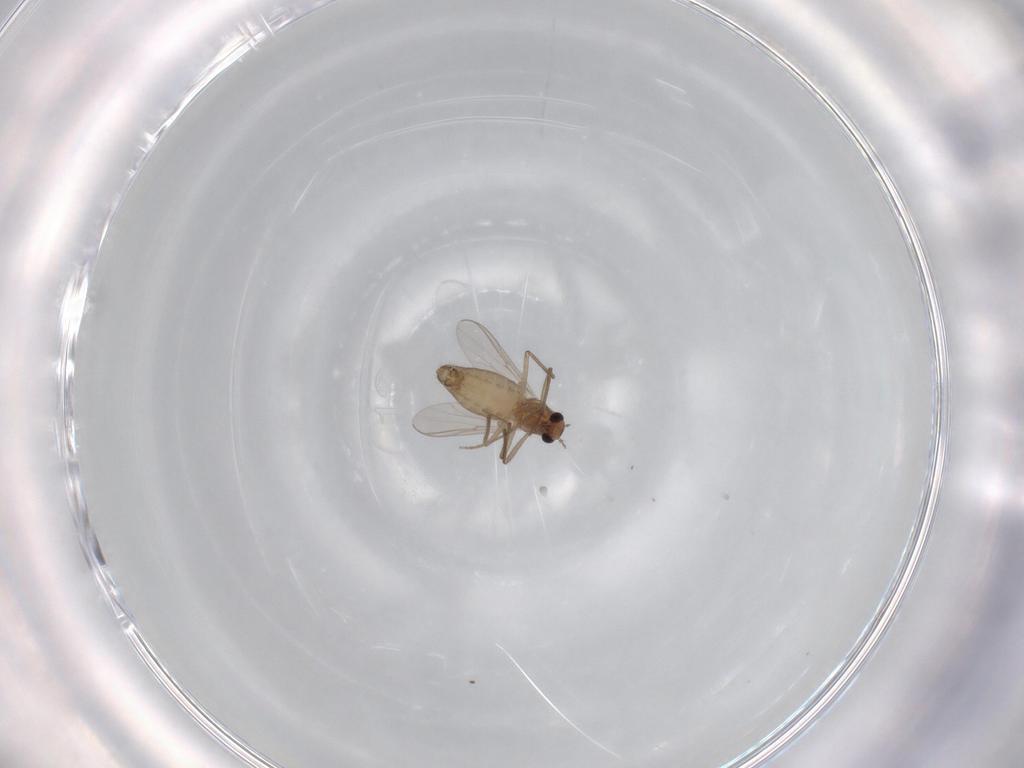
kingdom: Animalia
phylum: Arthropoda
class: Insecta
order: Diptera
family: Chironomidae
